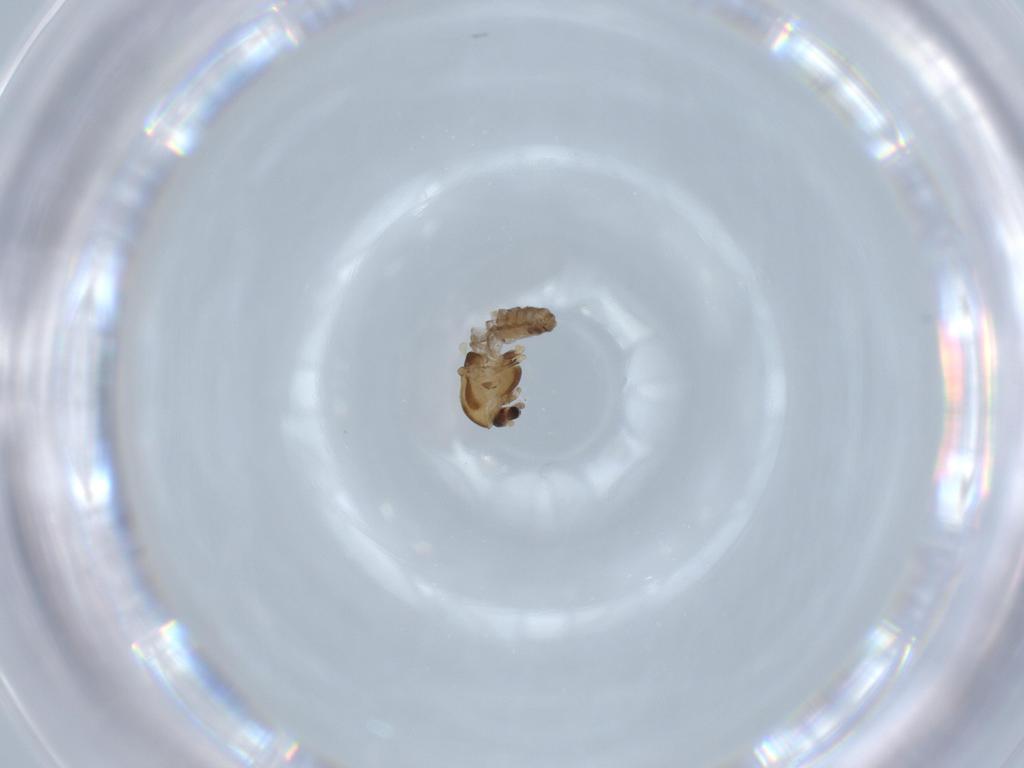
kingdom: Animalia
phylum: Arthropoda
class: Insecta
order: Diptera
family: Chironomidae
